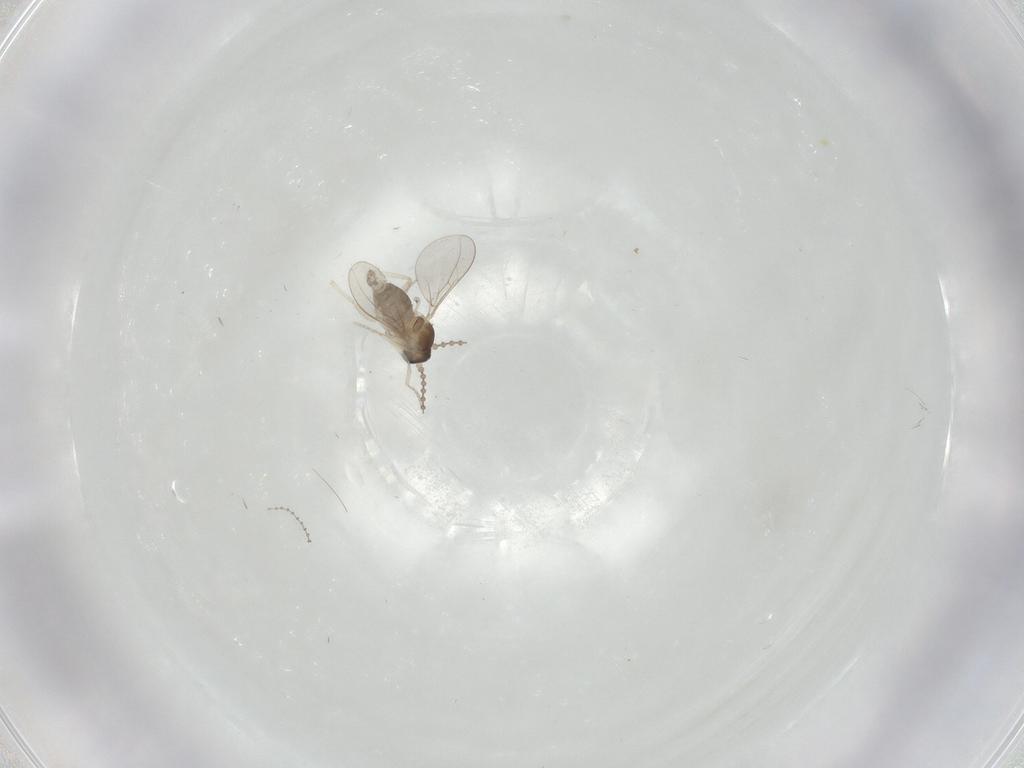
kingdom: Animalia
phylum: Arthropoda
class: Insecta
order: Diptera
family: Cecidomyiidae
